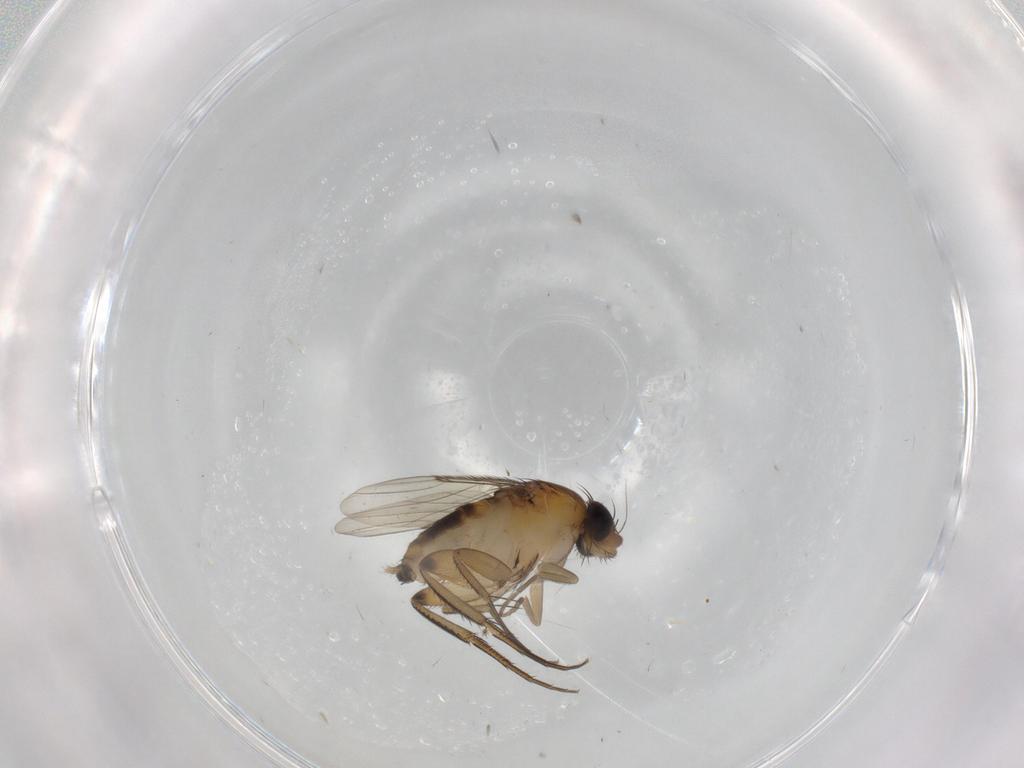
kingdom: Animalia
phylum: Arthropoda
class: Insecta
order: Diptera
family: Phoridae
